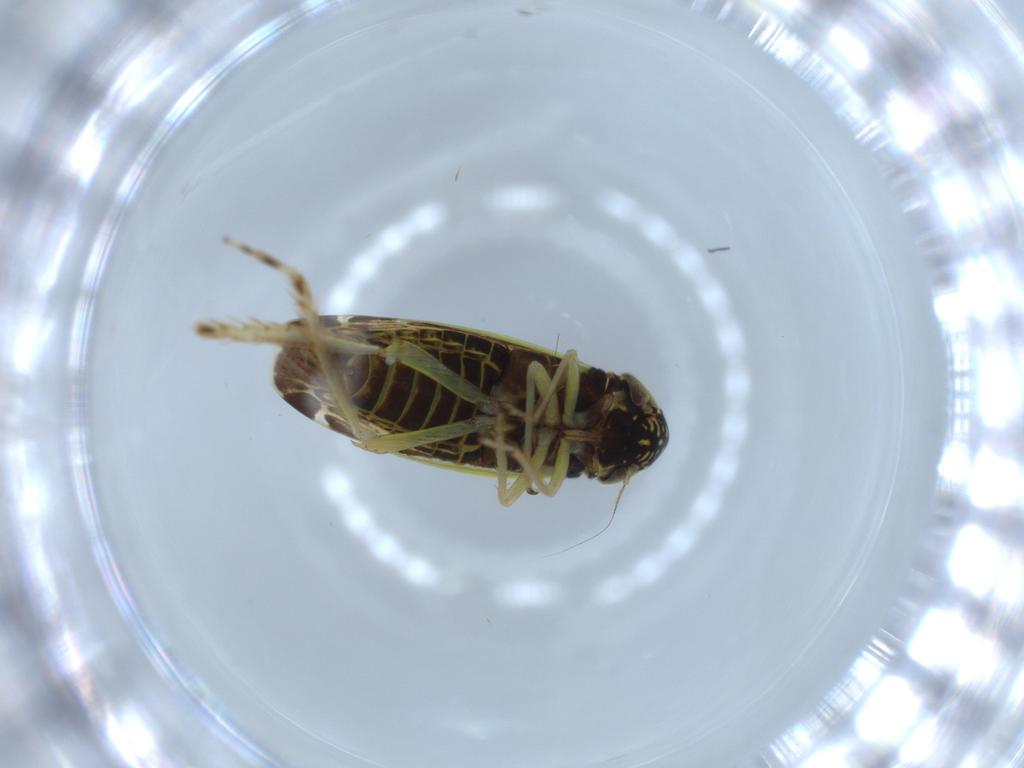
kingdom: Animalia
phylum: Arthropoda
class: Insecta
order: Hemiptera
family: Cicadellidae
